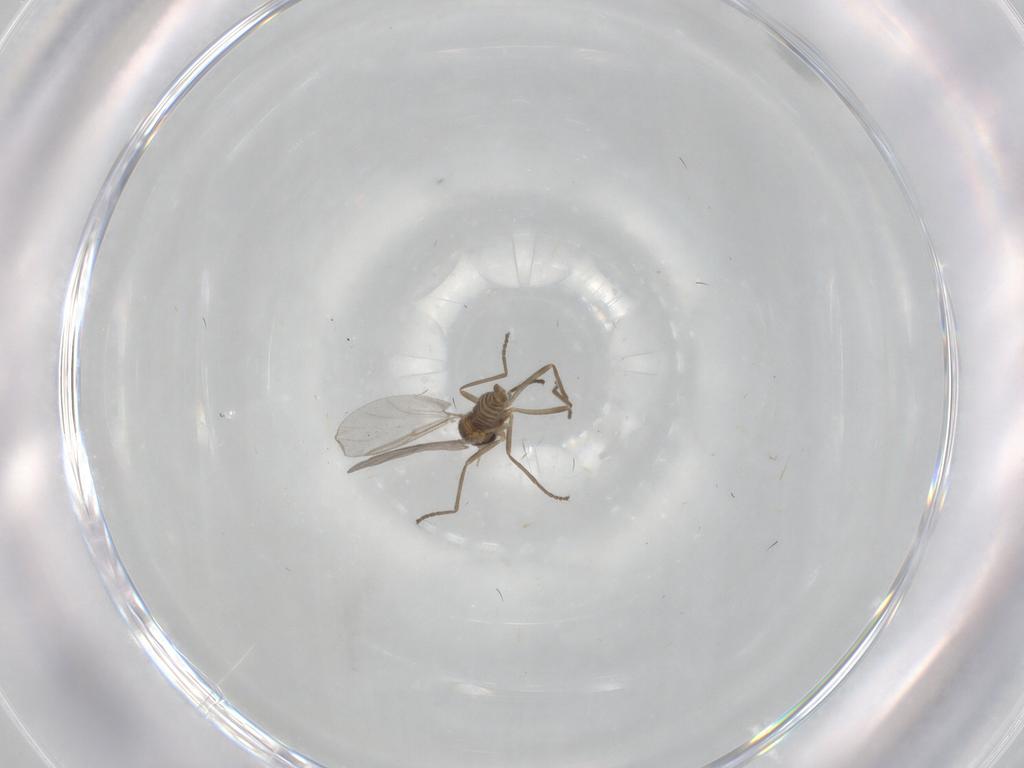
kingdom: Animalia
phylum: Arthropoda
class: Insecta
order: Diptera
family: Cecidomyiidae
